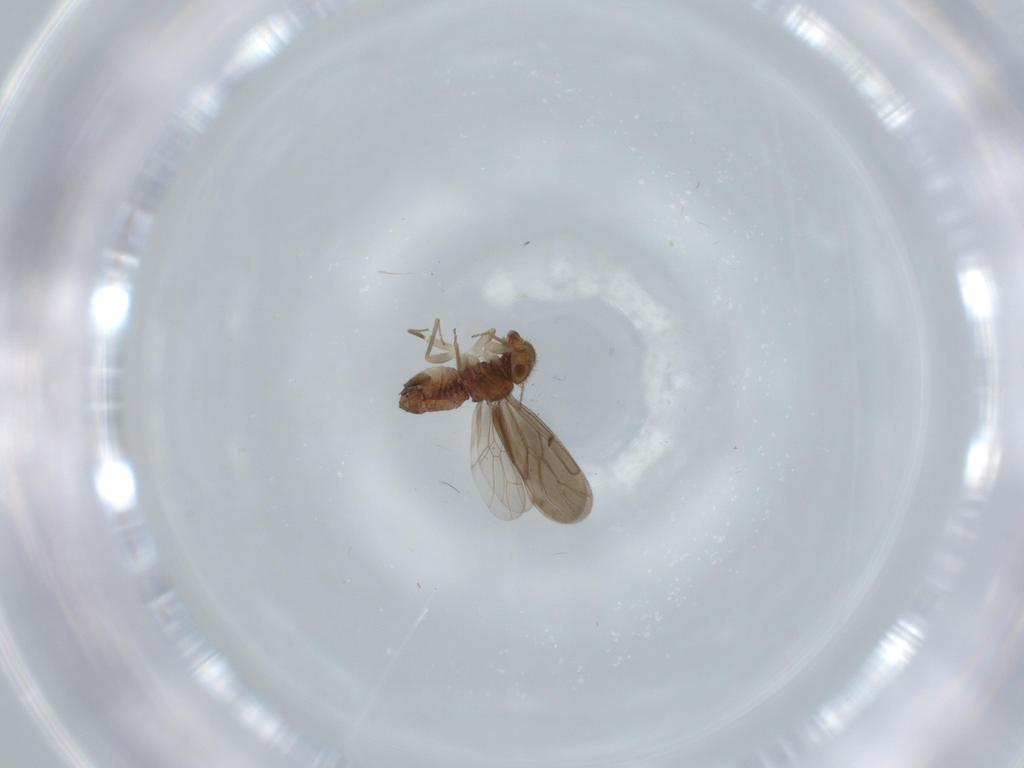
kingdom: Animalia
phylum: Arthropoda
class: Insecta
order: Psocodea
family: Ectopsocidae
